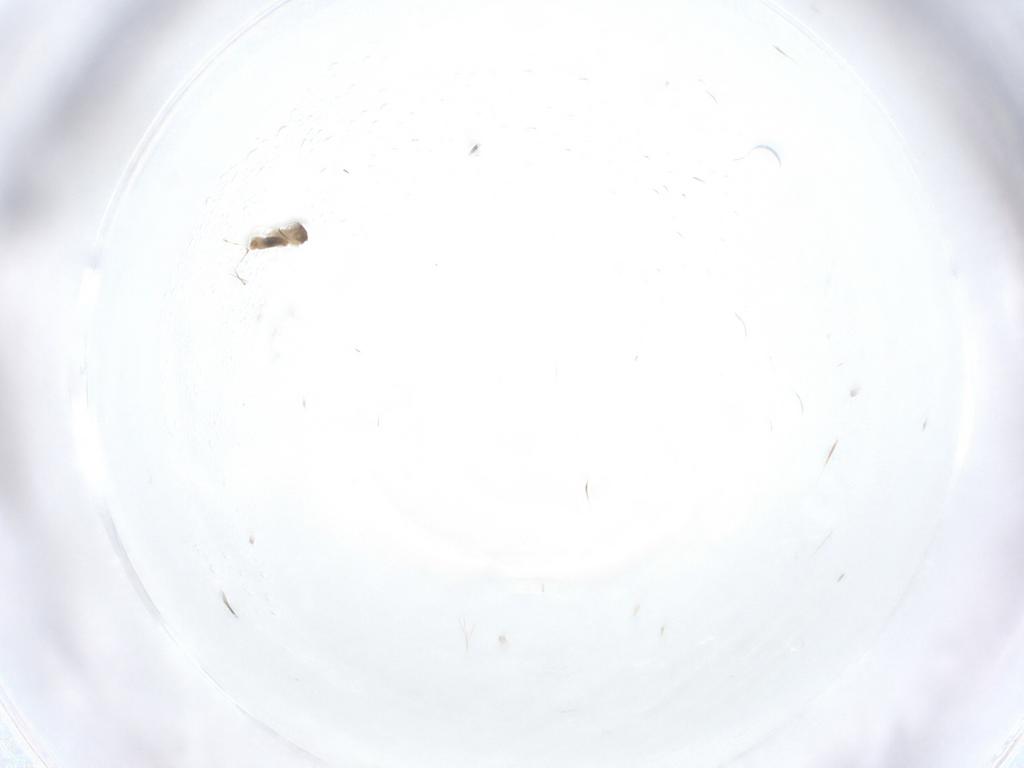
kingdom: Animalia
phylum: Arthropoda
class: Insecta
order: Diptera
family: Cecidomyiidae
